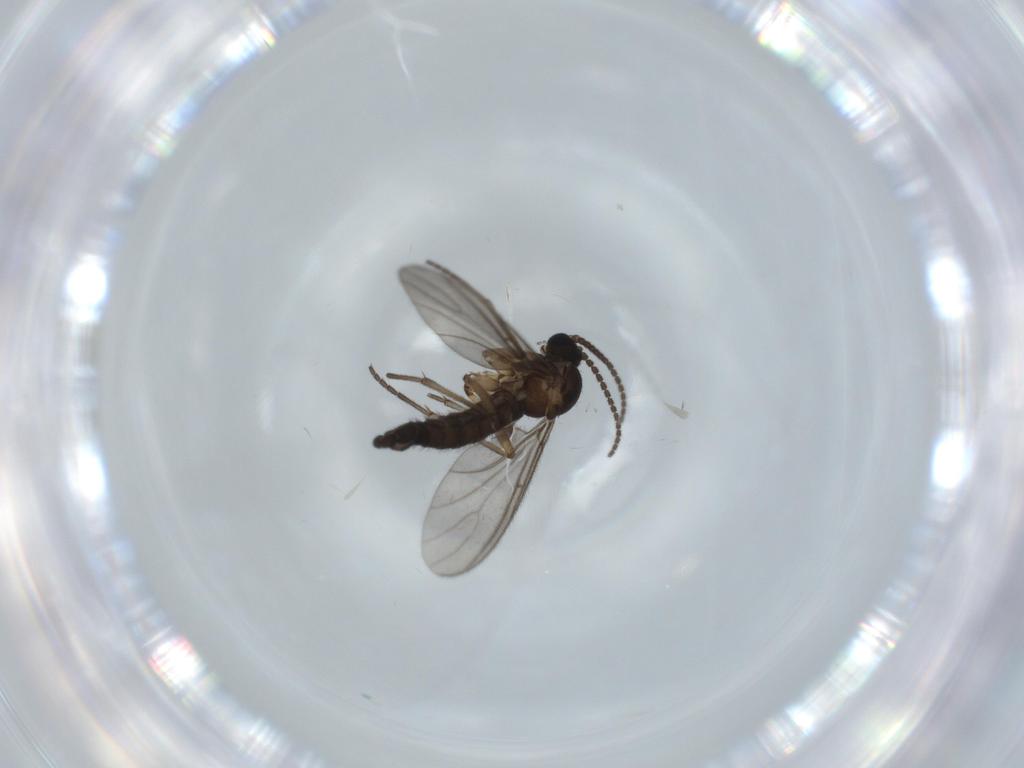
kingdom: Animalia
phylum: Arthropoda
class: Insecta
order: Diptera
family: Sciaridae
